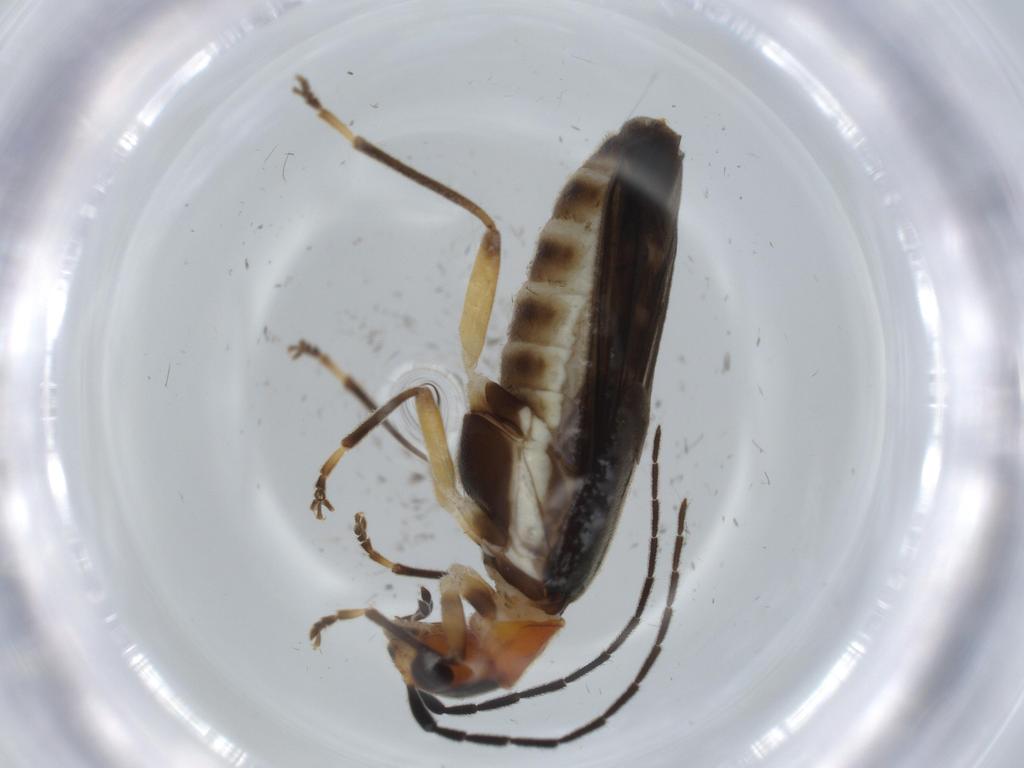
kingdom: Animalia
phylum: Arthropoda
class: Insecta
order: Coleoptera
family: Cantharidae
